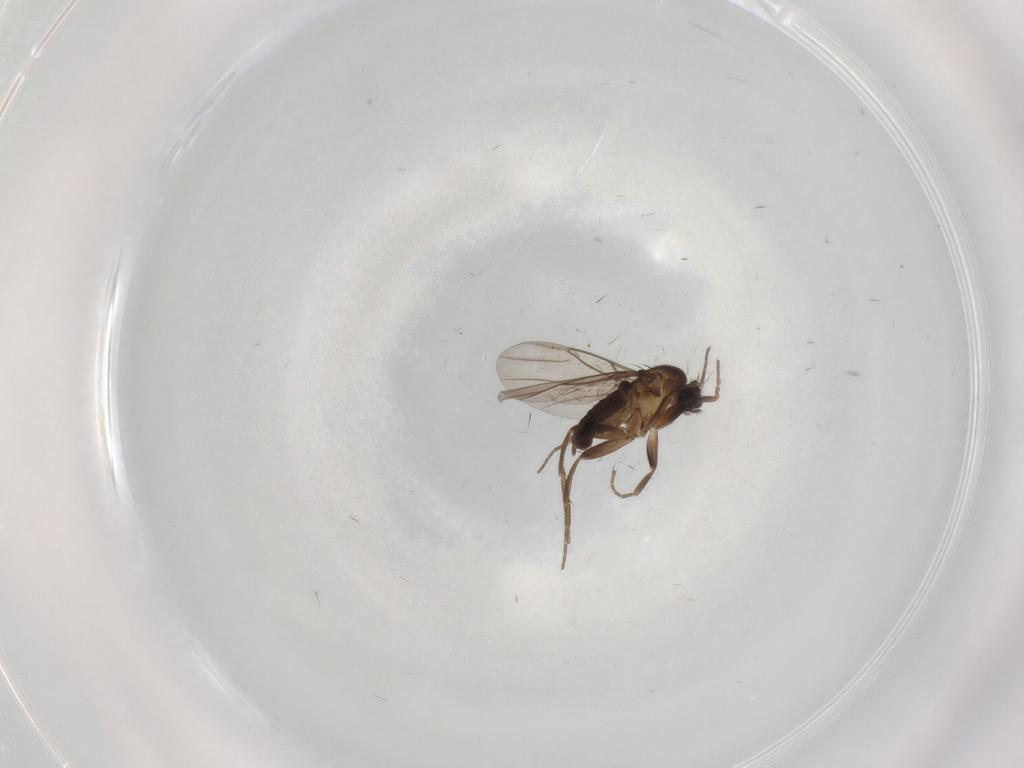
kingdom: Animalia
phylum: Arthropoda
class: Insecta
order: Diptera
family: Phoridae
